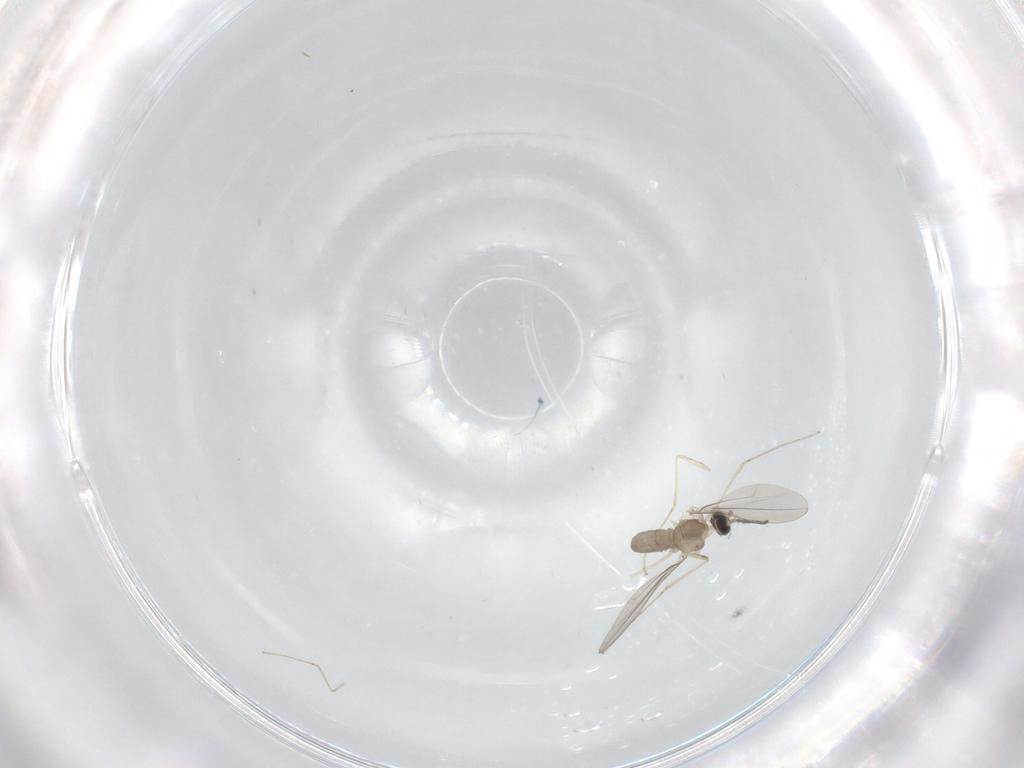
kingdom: Animalia
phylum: Arthropoda
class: Insecta
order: Diptera
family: Cecidomyiidae
